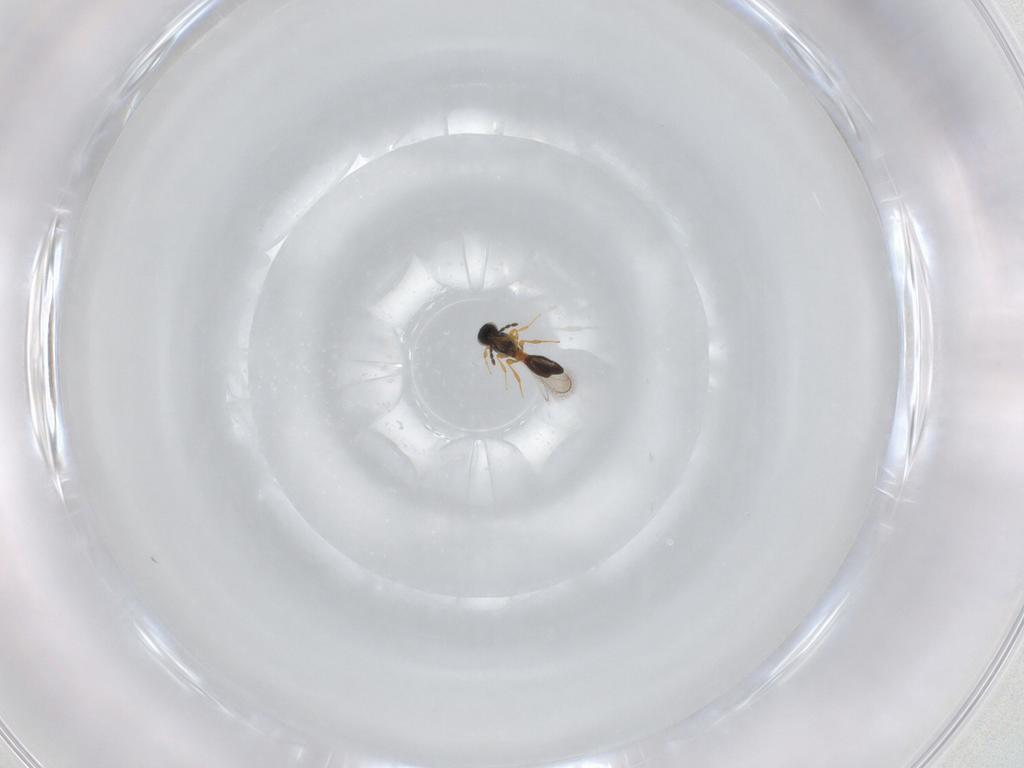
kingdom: Animalia
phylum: Arthropoda
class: Insecta
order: Hymenoptera
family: Platygastridae
